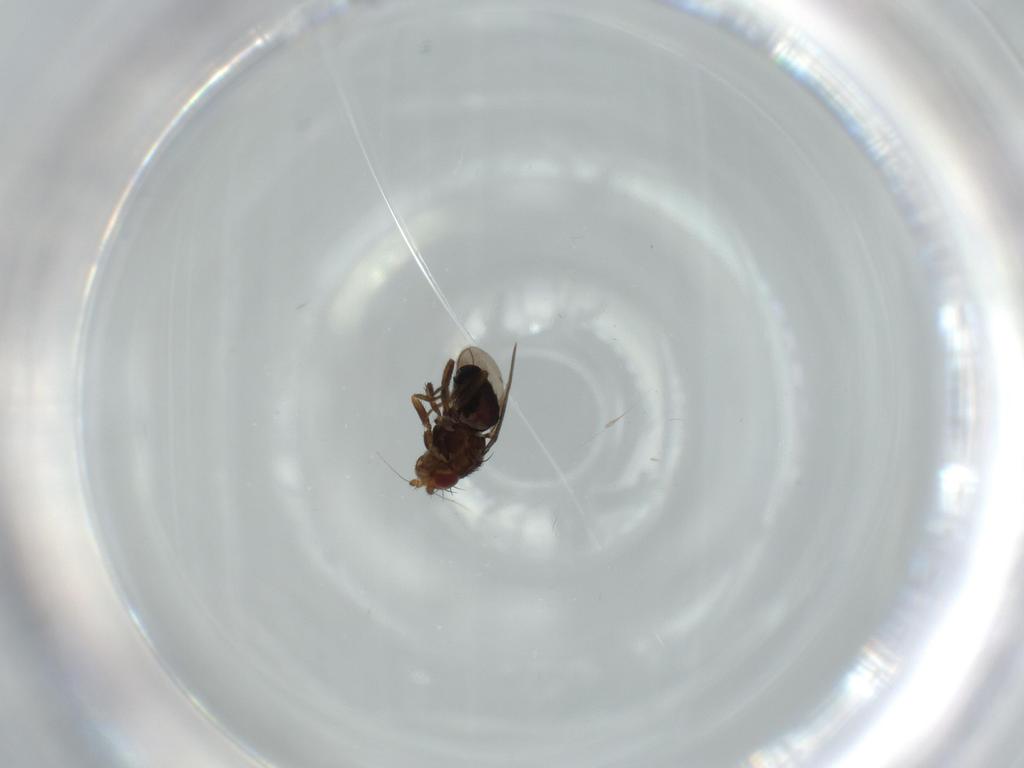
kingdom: Animalia
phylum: Arthropoda
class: Insecta
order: Diptera
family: Sphaeroceridae
